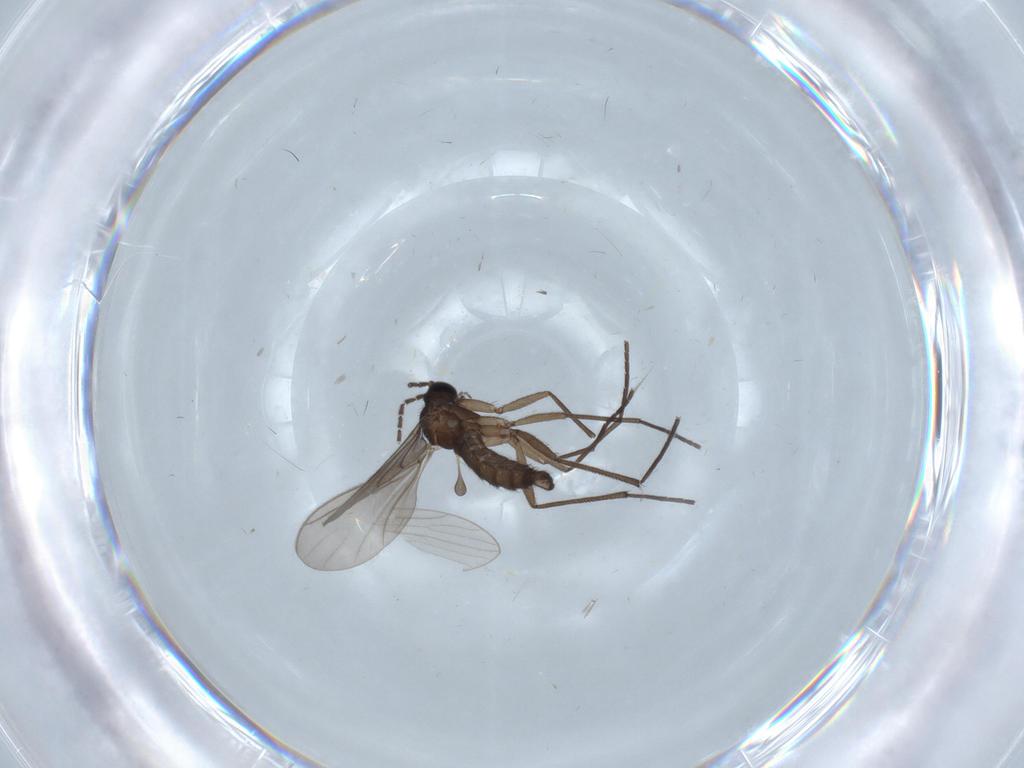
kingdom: Animalia
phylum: Arthropoda
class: Insecta
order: Diptera
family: Sciaridae
